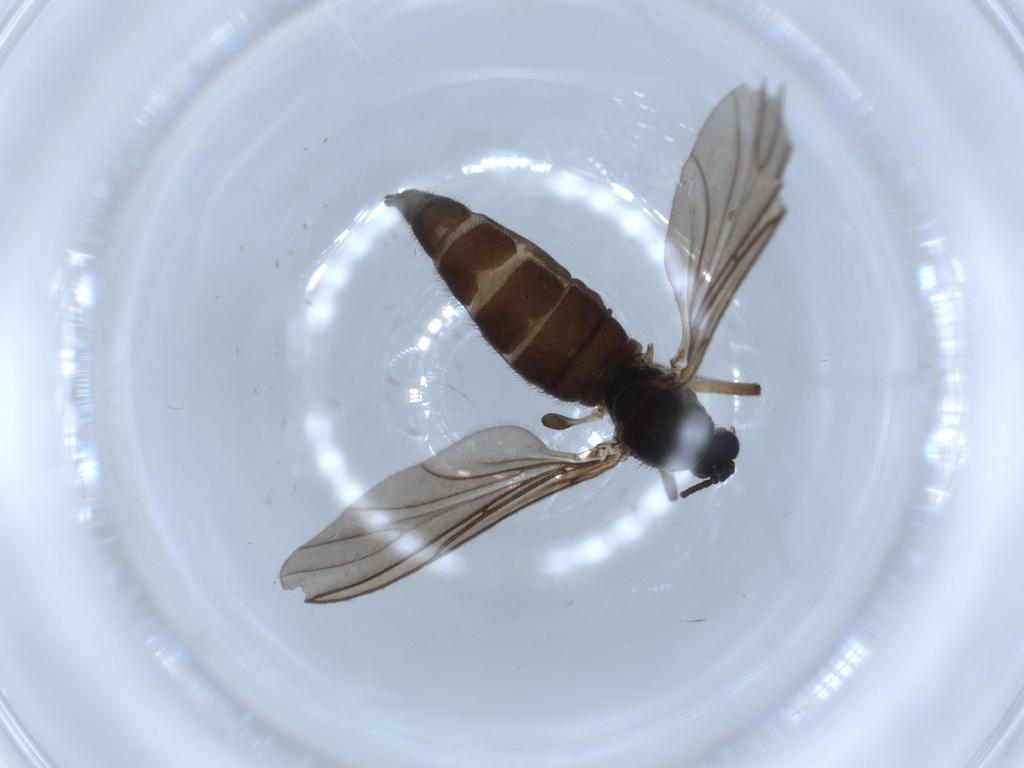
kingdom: Animalia
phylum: Arthropoda
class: Insecta
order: Diptera
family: Sciaridae
